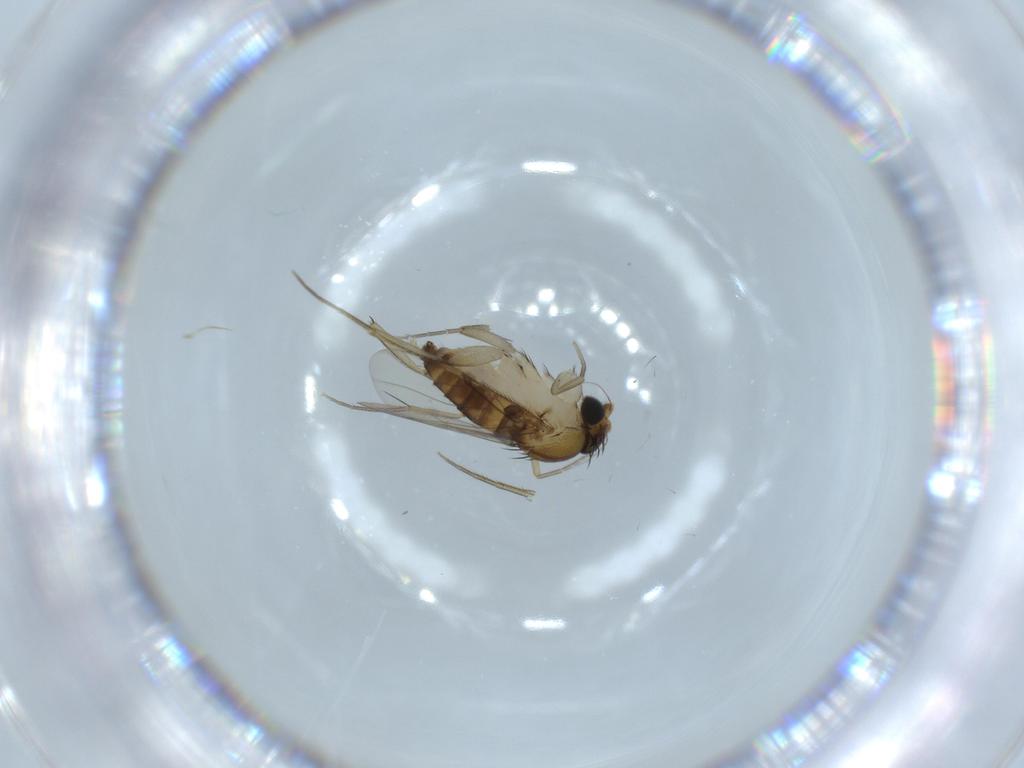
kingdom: Animalia
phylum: Arthropoda
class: Insecta
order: Diptera
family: Phoridae
